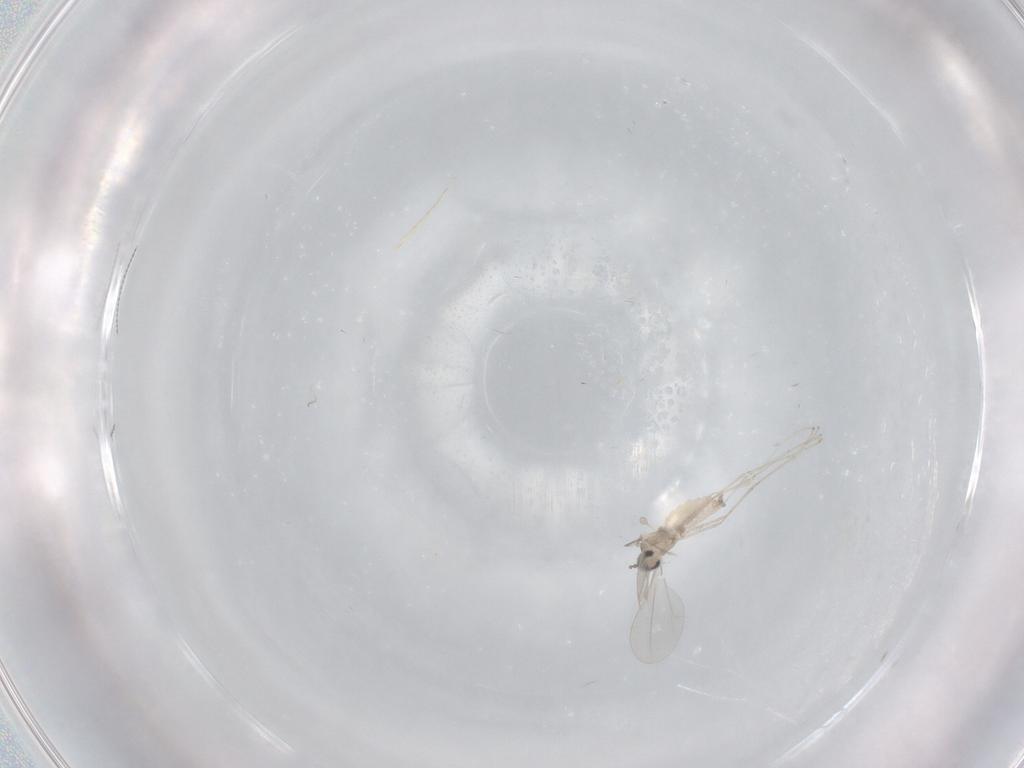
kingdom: Animalia
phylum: Arthropoda
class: Insecta
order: Diptera
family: Cecidomyiidae
